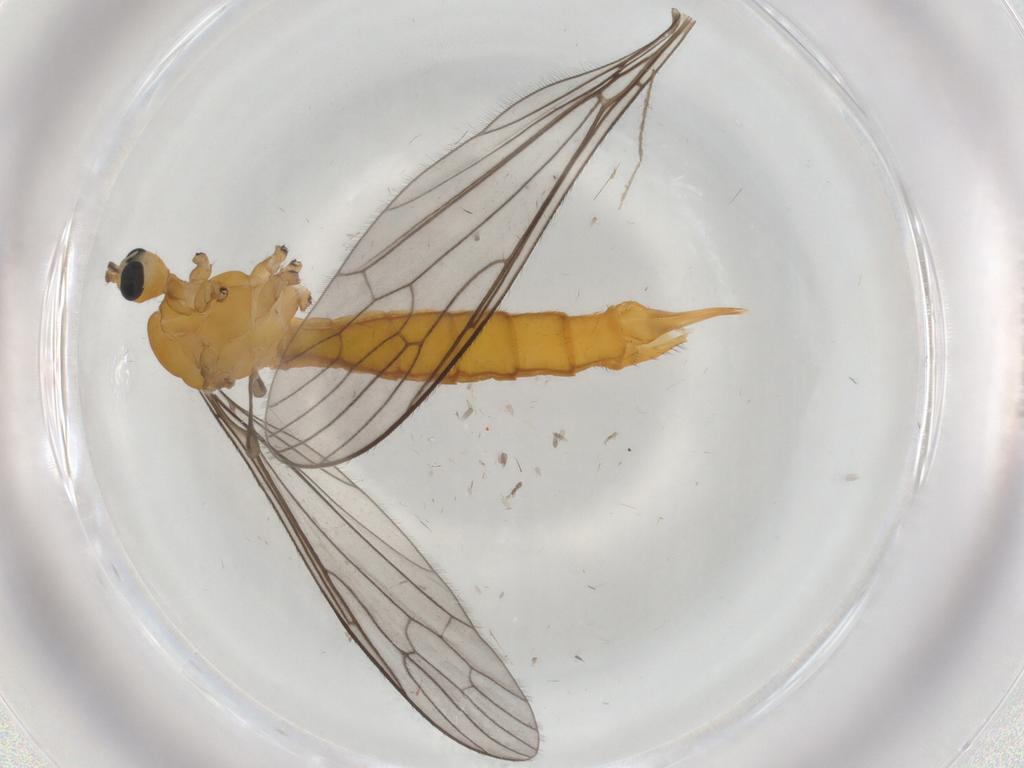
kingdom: Animalia
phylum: Arthropoda
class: Insecta
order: Diptera
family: Limoniidae
